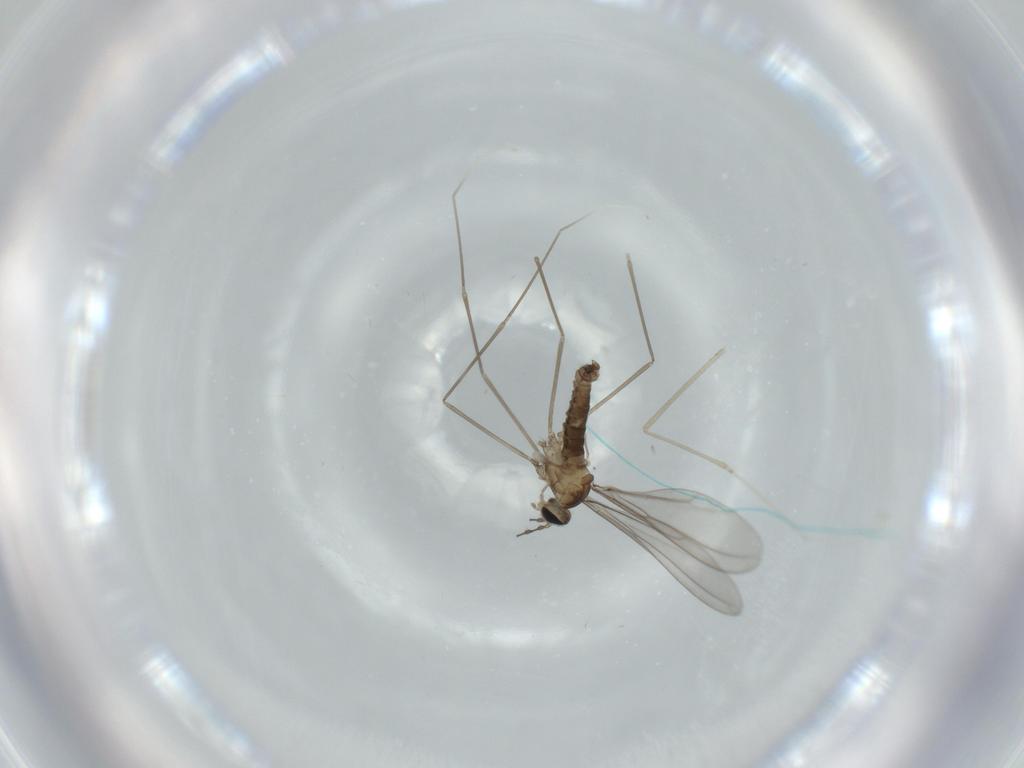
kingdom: Animalia
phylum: Arthropoda
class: Insecta
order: Diptera
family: Cecidomyiidae
